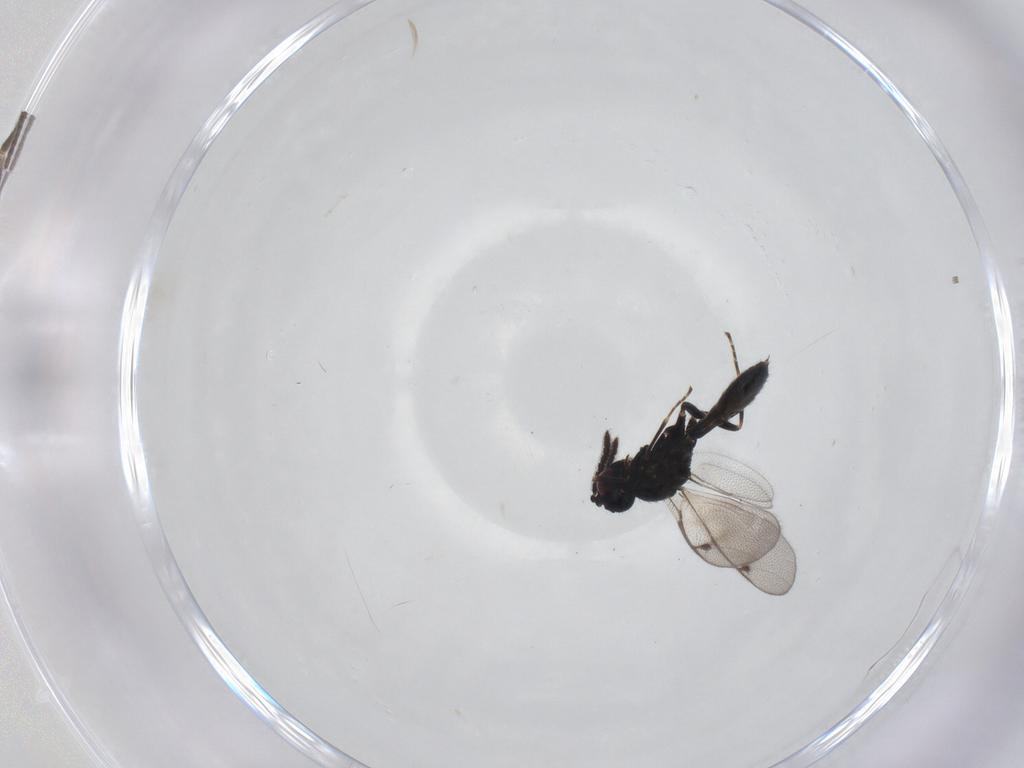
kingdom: Animalia
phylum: Arthropoda
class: Insecta
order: Hymenoptera
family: Pteromalidae
